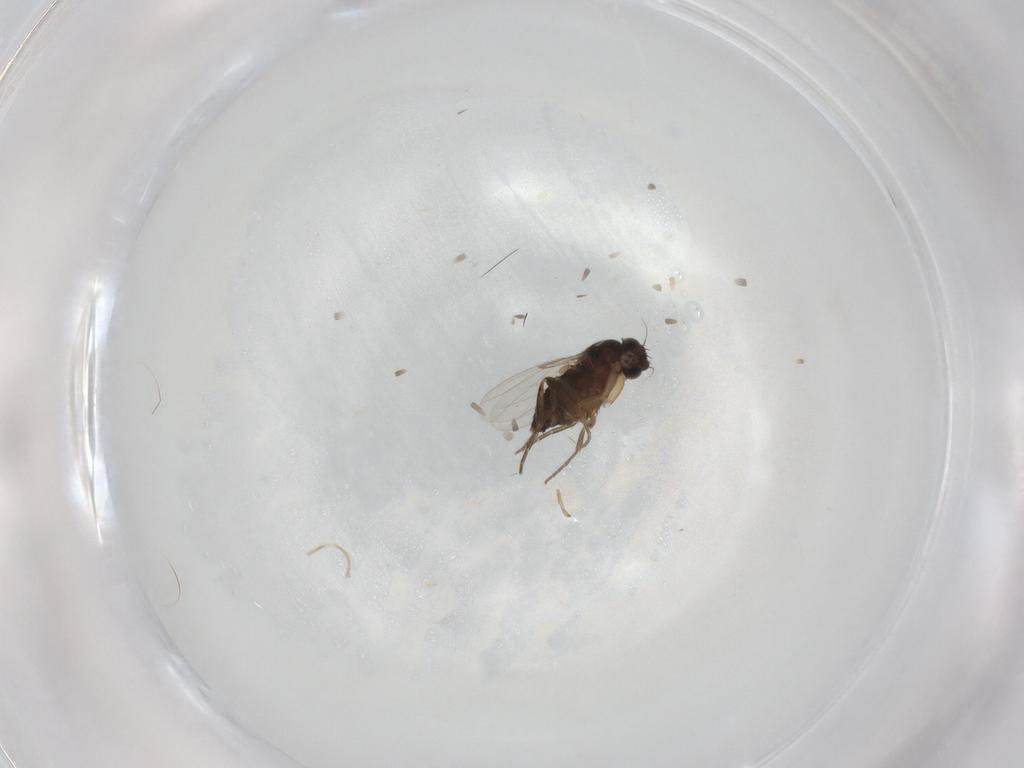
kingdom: Animalia
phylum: Arthropoda
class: Insecta
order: Diptera
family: Phoridae
